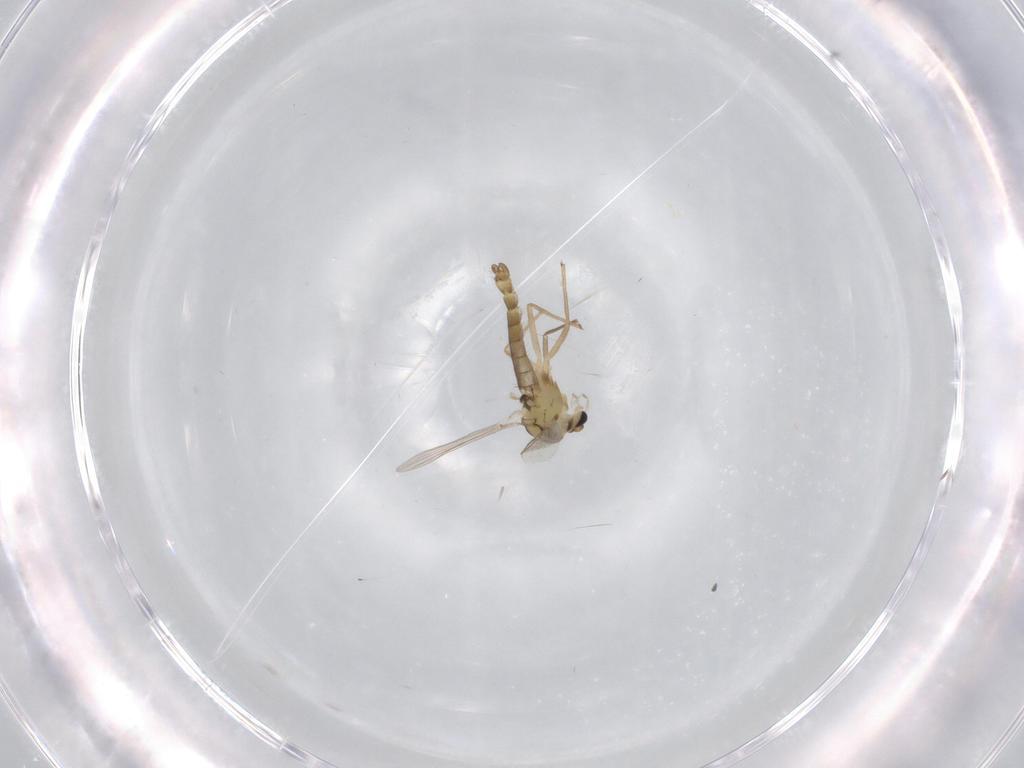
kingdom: Animalia
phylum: Arthropoda
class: Insecta
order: Diptera
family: Chironomidae
